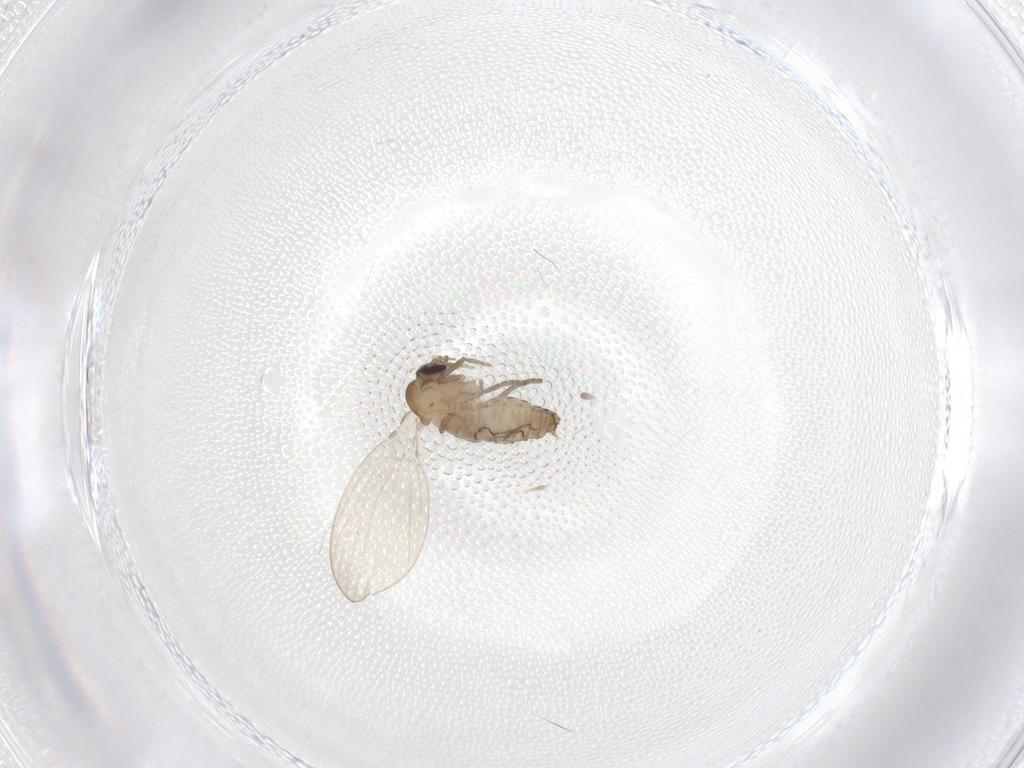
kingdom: Animalia
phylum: Arthropoda
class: Insecta
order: Diptera
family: Psychodidae
